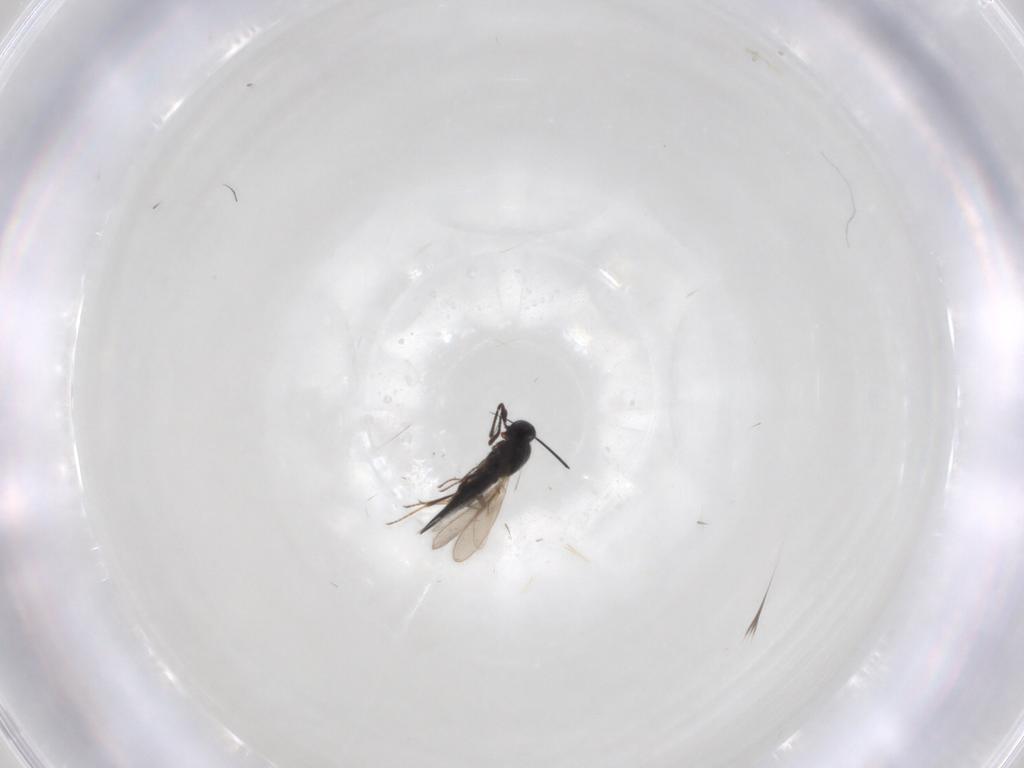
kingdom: Animalia
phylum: Arthropoda
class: Insecta
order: Hymenoptera
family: Scelionidae
